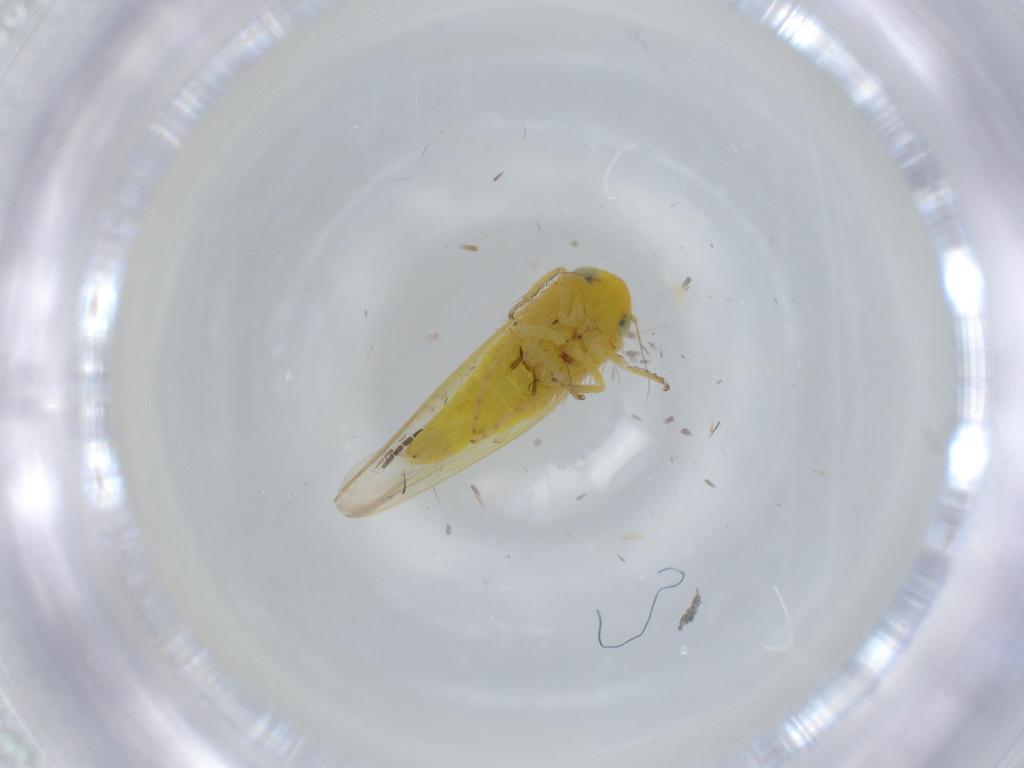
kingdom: Animalia
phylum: Arthropoda
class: Insecta
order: Hemiptera
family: Cicadellidae
